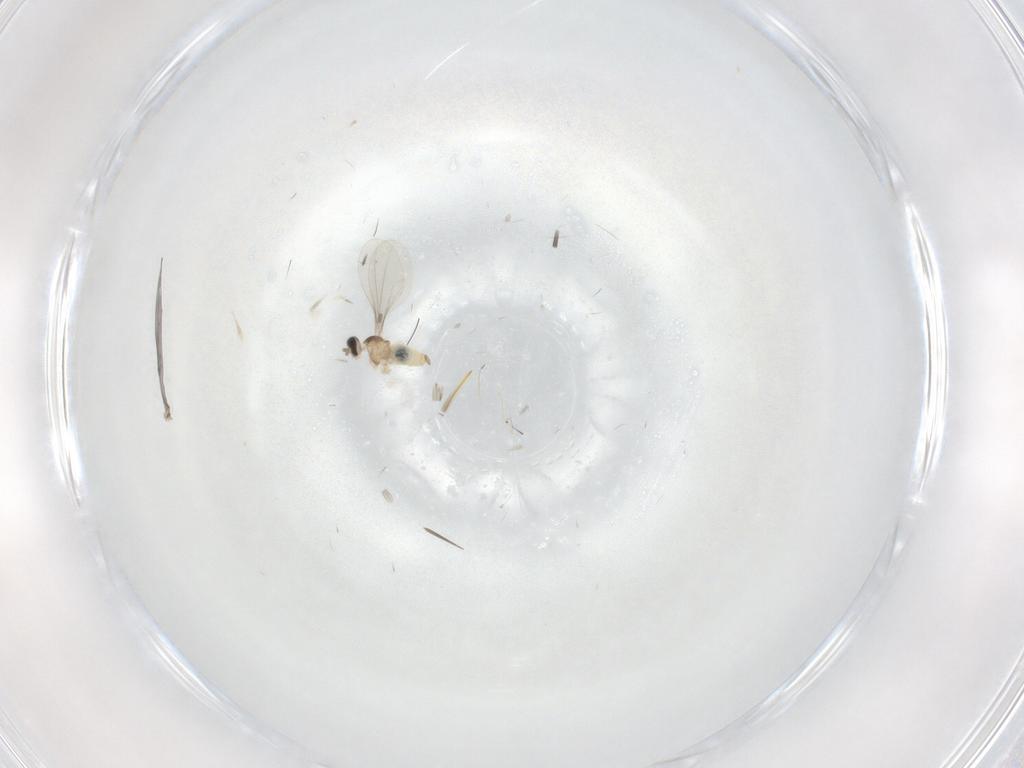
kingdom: Animalia
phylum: Arthropoda
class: Insecta
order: Diptera
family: Cecidomyiidae
